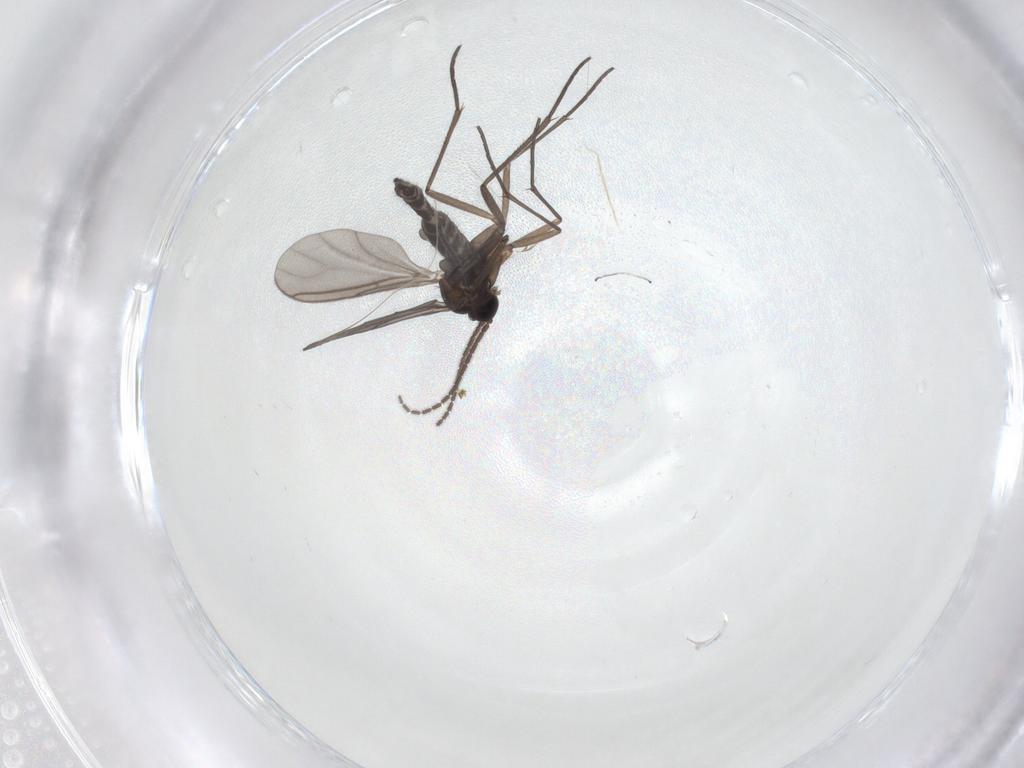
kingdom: Animalia
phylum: Arthropoda
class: Insecta
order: Diptera
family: Sciaridae
